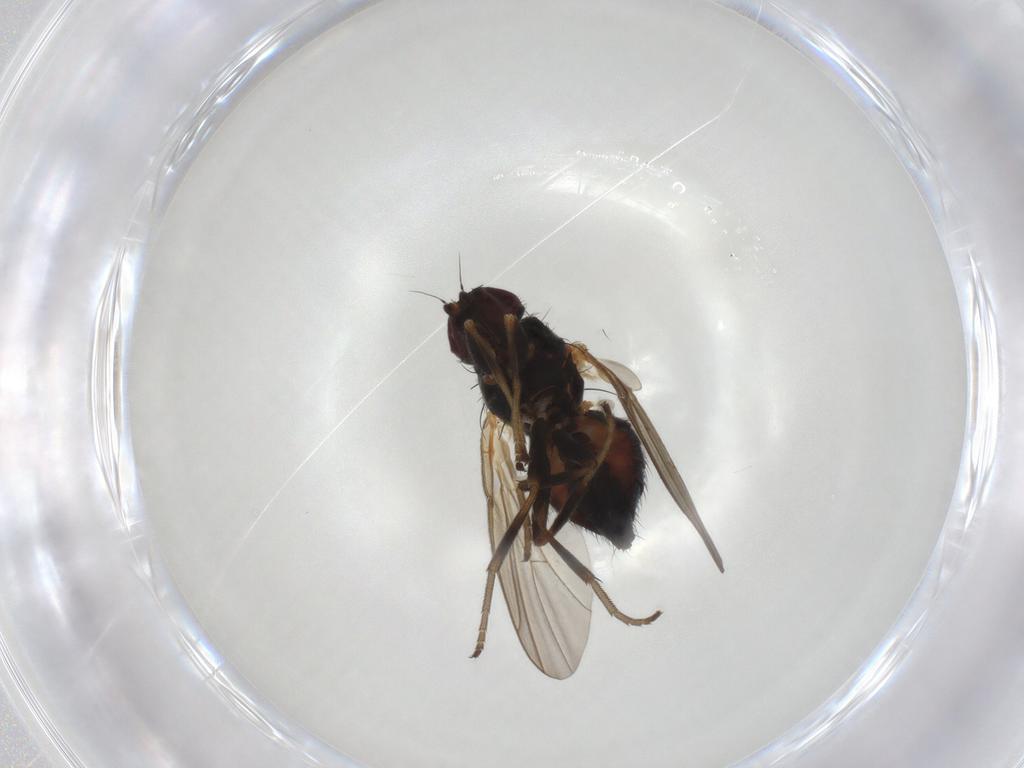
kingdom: Animalia
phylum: Arthropoda
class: Insecta
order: Diptera
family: Agromyzidae
